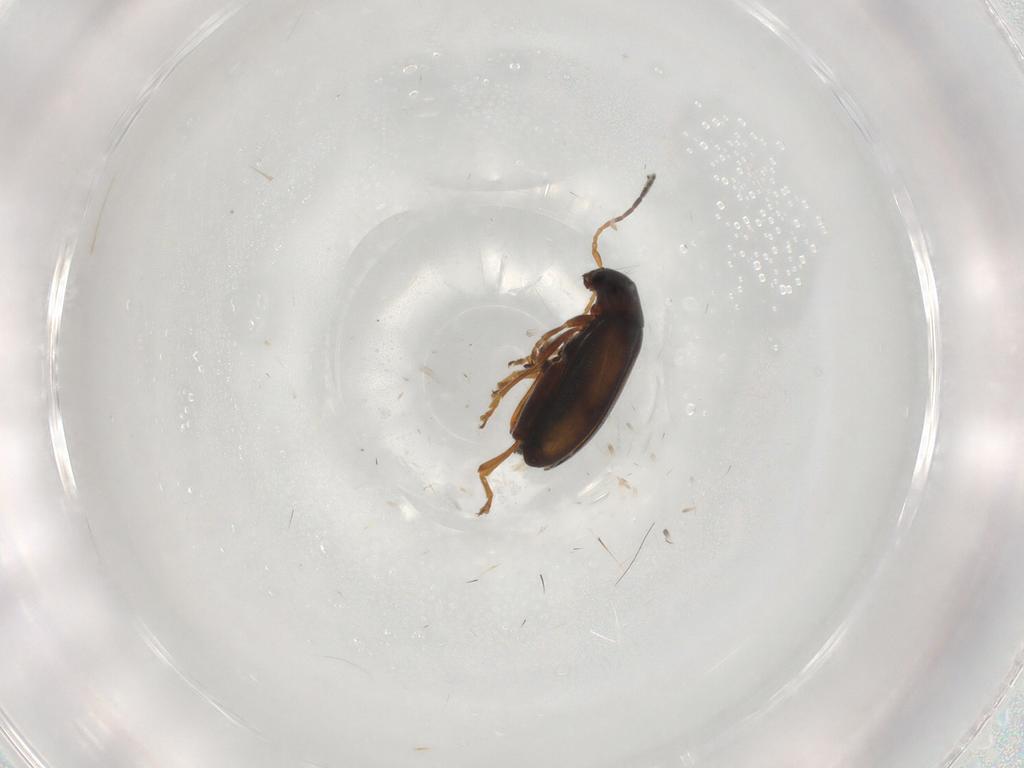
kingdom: Animalia
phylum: Arthropoda
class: Insecta
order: Coleoptera
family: Chrysomelidae
